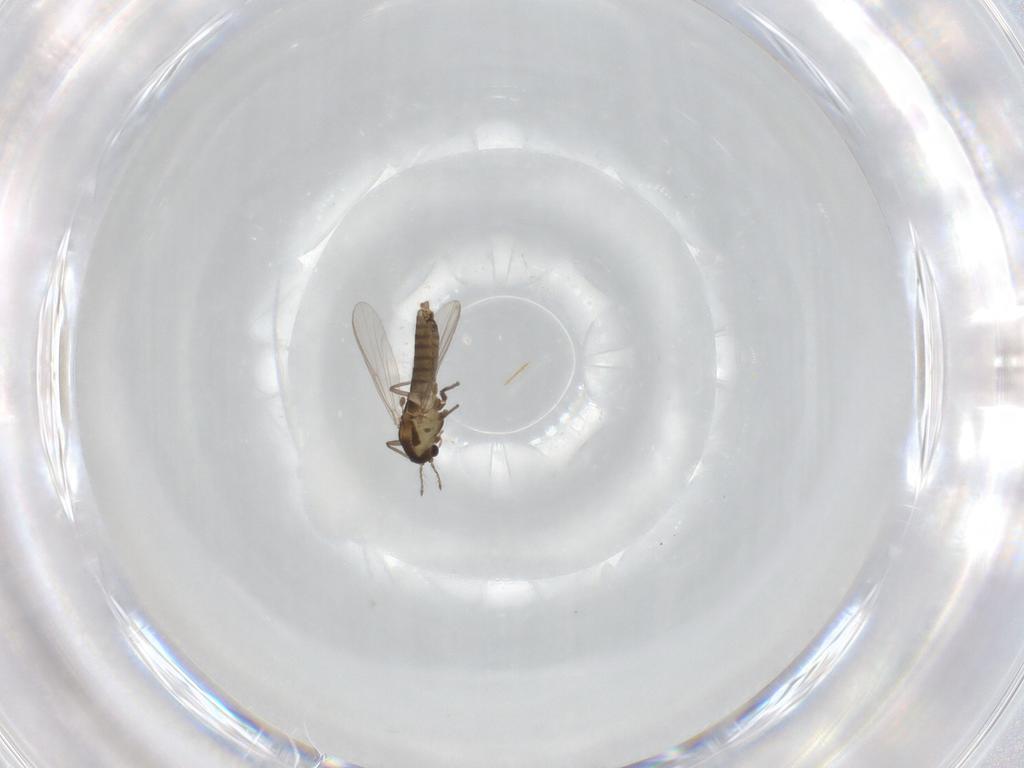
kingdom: Animalia
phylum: Arthropoda
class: Insecta
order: Diptera
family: Chironomidae
